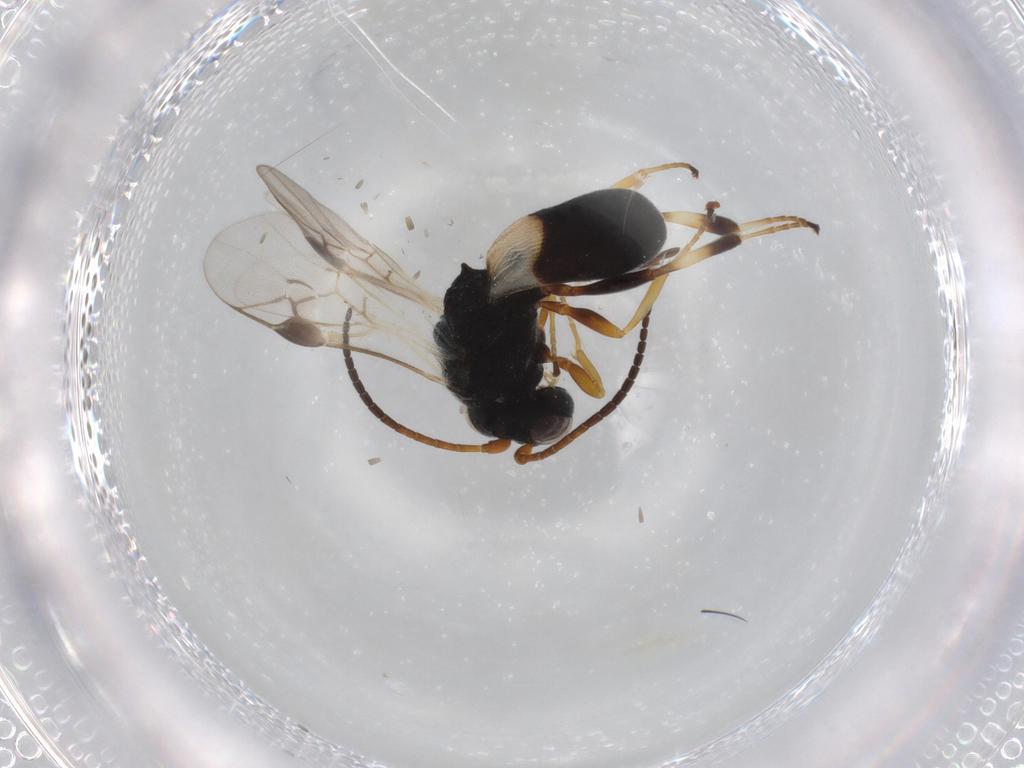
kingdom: Animalia
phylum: Arthropoda
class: Insecta
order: Hymenoptera
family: Braconidae
